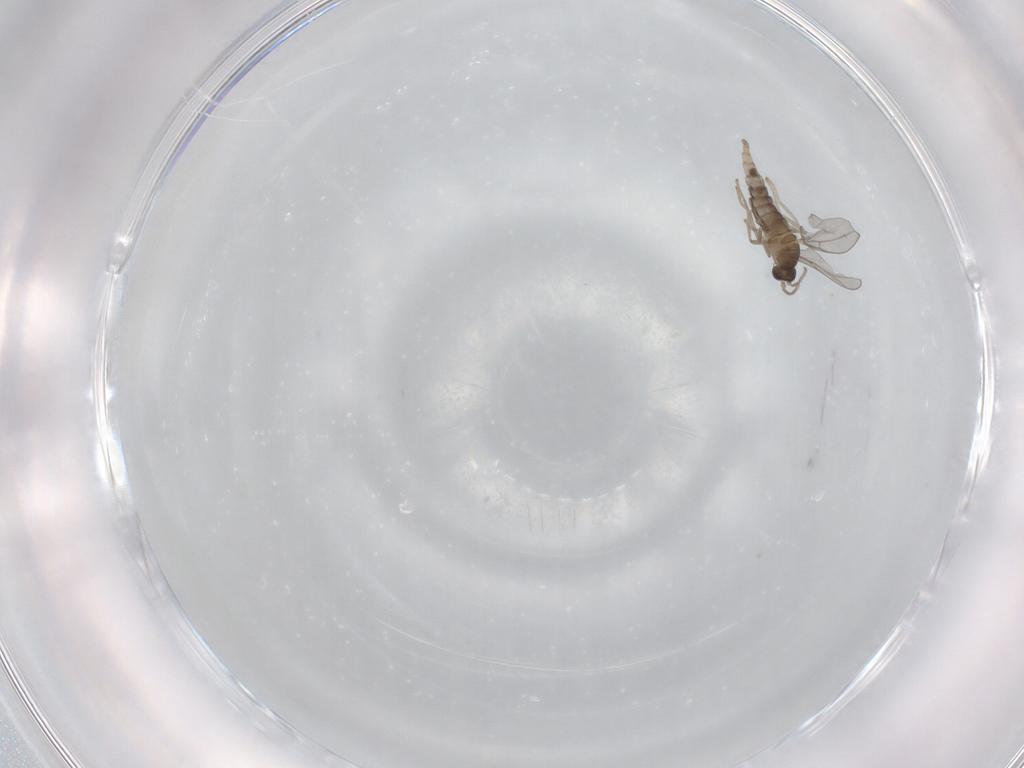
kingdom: Animalia
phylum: Arthropoda
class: Insecta
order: Diptera
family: Cecidomyiidae
